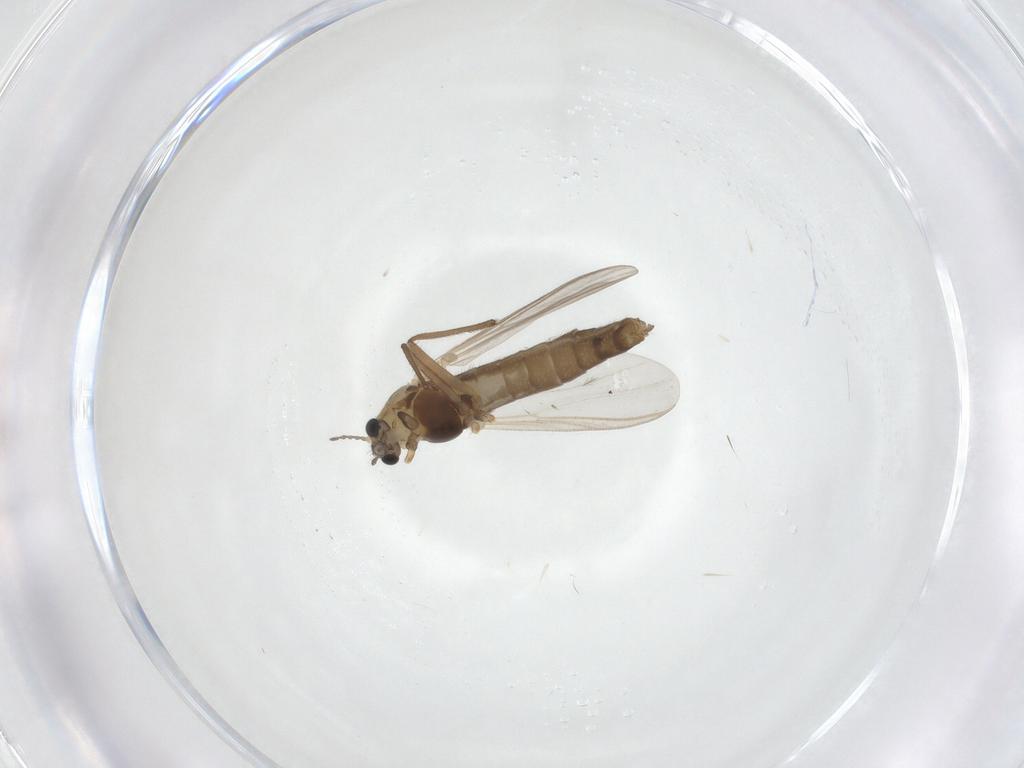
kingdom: Animalia
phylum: Arthropoda
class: Insecta
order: Diptera
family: Chironomidae
